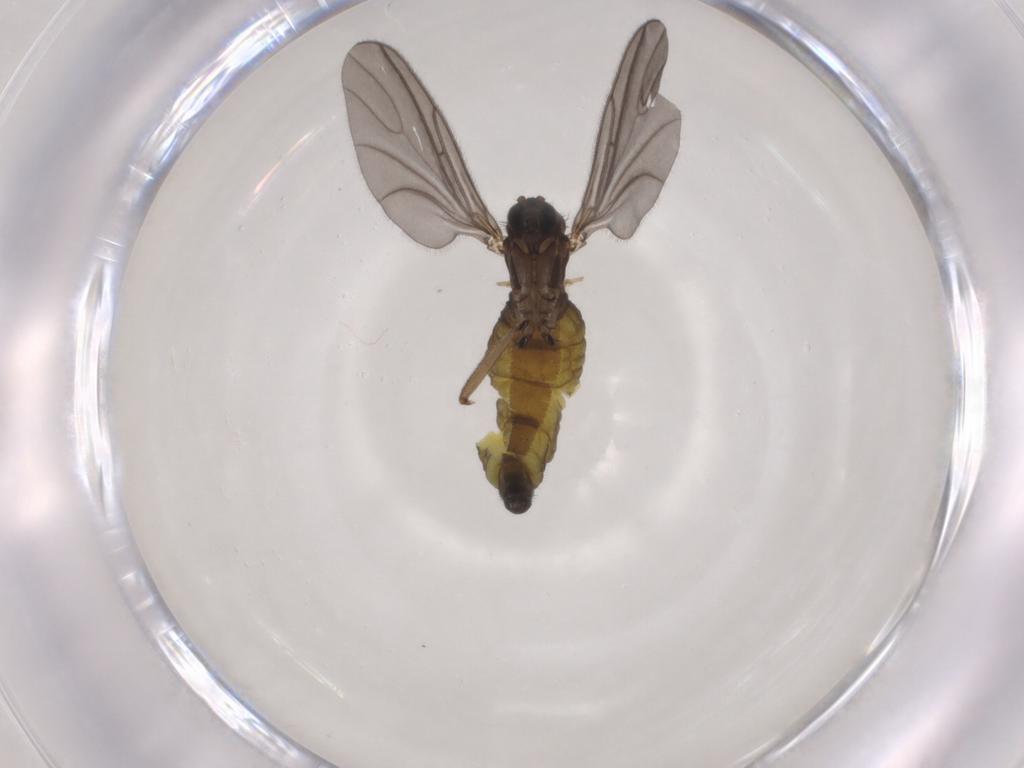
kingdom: Animalia
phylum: Arthropoda
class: Insecta
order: Diptera
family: Sciaridae
